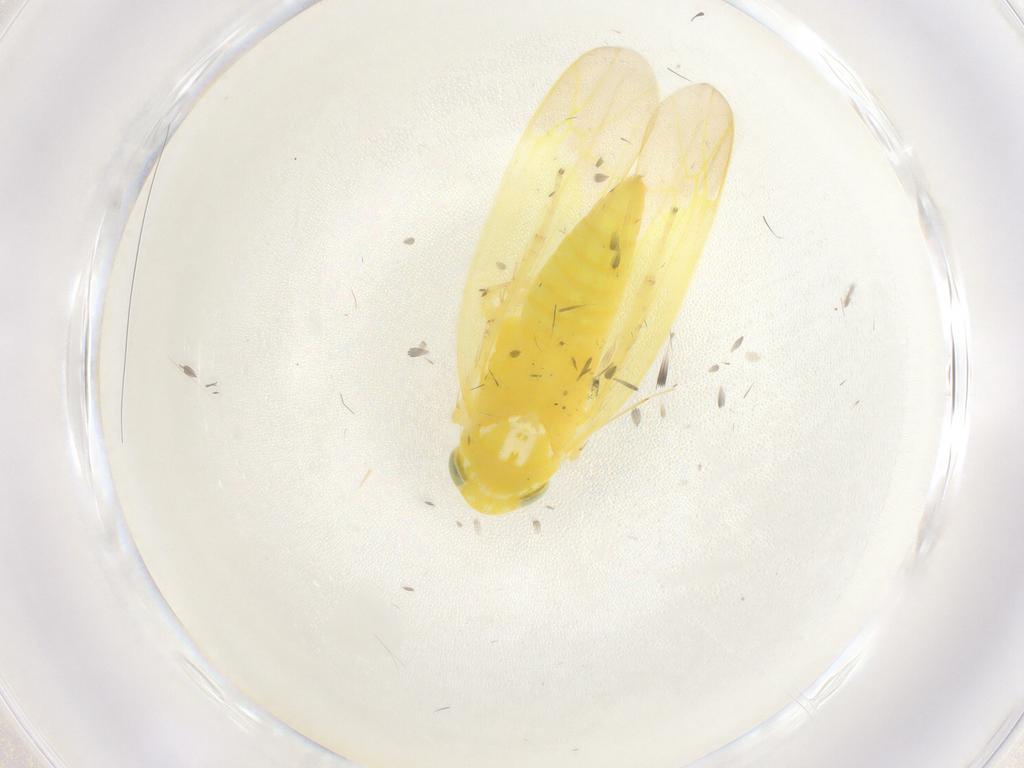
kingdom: Animalia
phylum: Arthropoda
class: Insecta
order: Hemiptera
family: Cicadellidae
